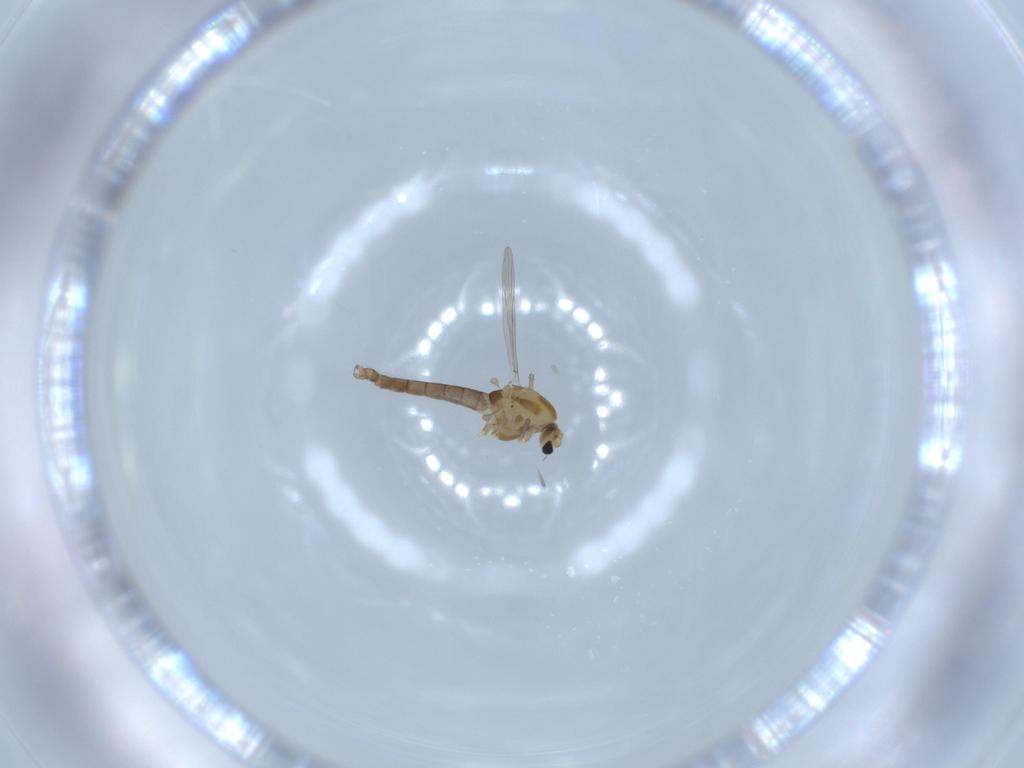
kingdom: Animalia
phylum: Arthropoda
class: Insecta
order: Diptera
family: Chironomidae
